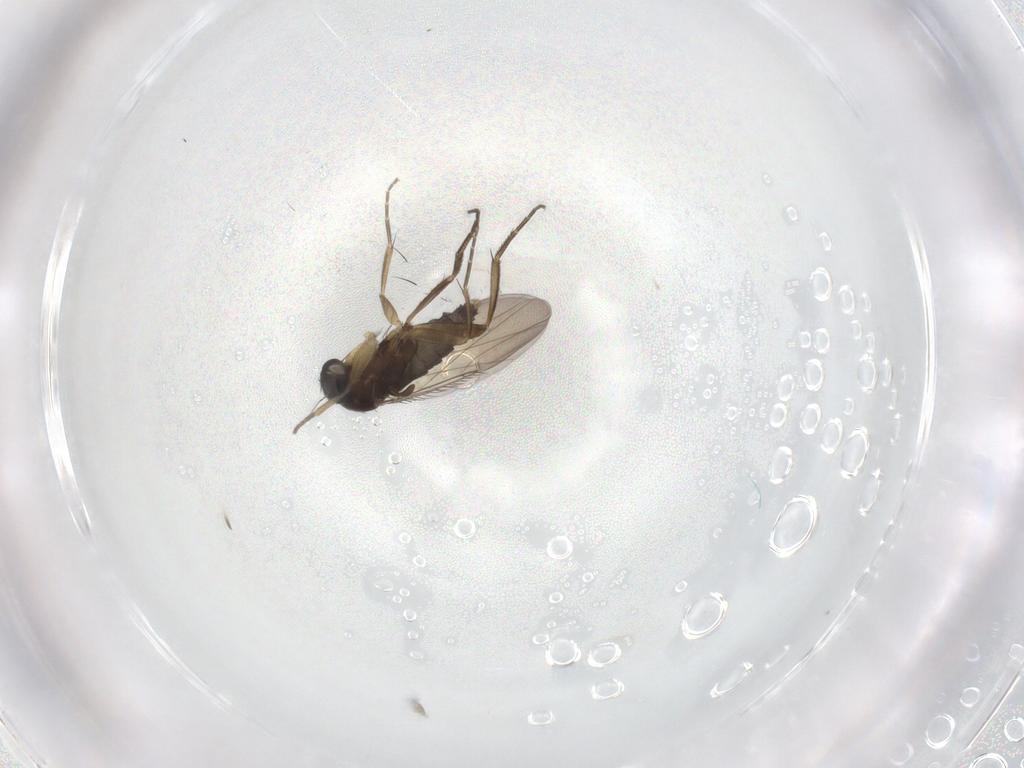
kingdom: Animalia
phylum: Arthropoda
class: Insecta
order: Diptera
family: Phoridae
